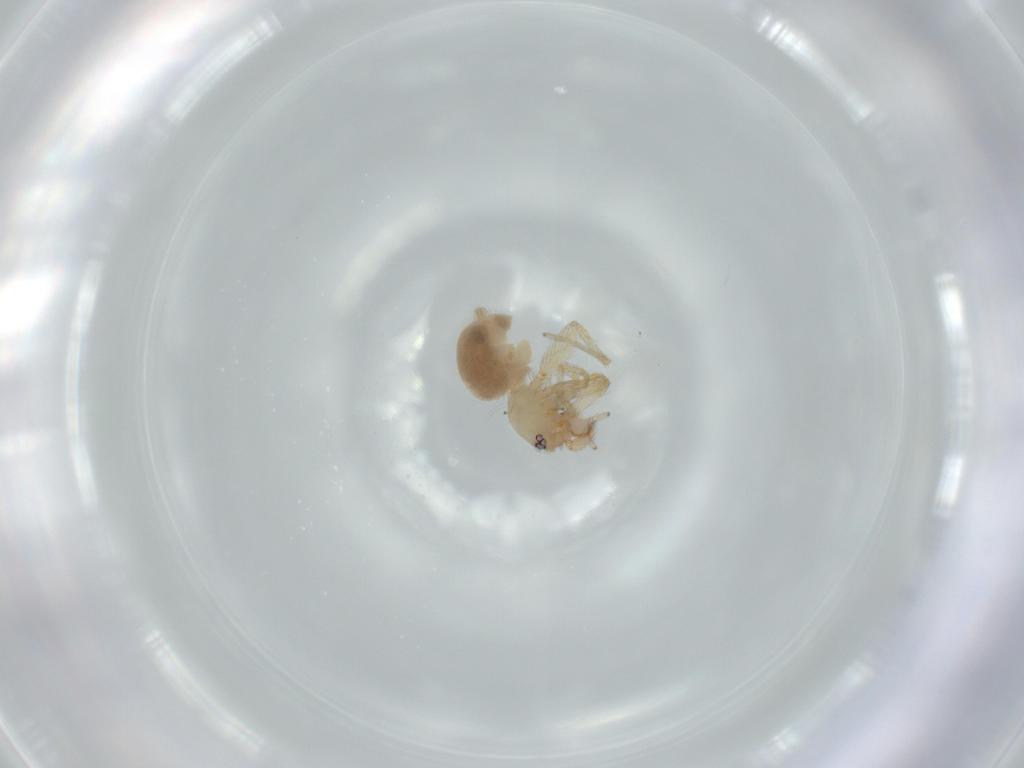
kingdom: Animalia
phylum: Arthropoda
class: Arachnida
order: Araneae
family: Oonopidae
